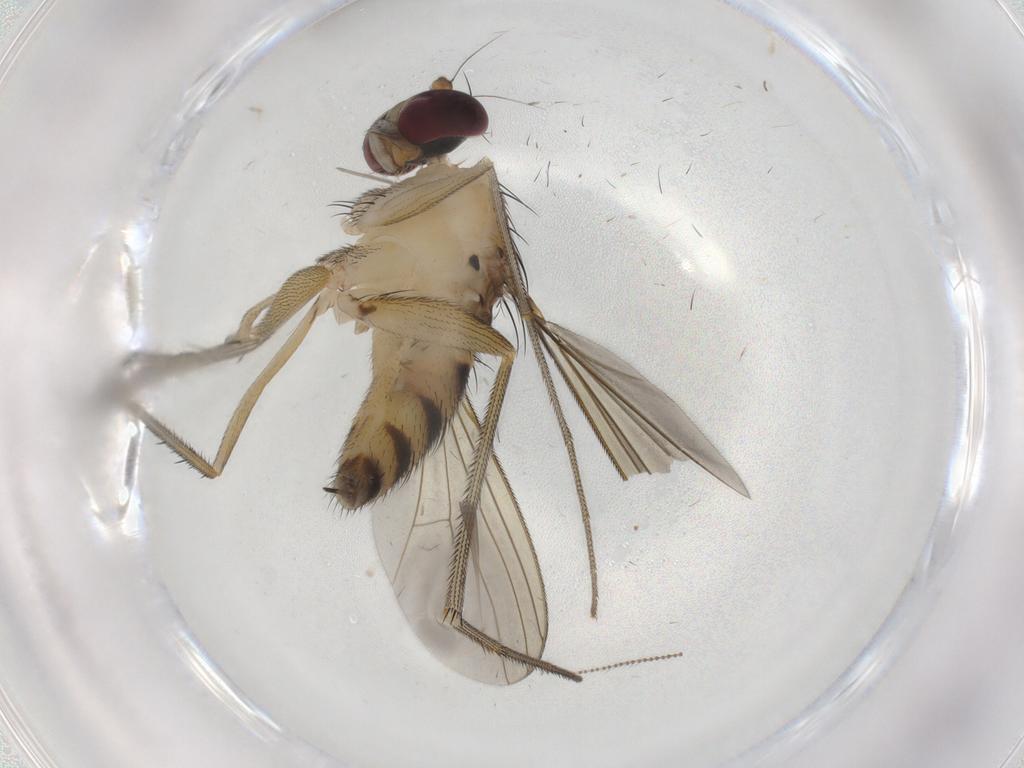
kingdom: Animalia
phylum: Arthropoda
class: Insecta
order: Diptera
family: Cecidomyiidae
